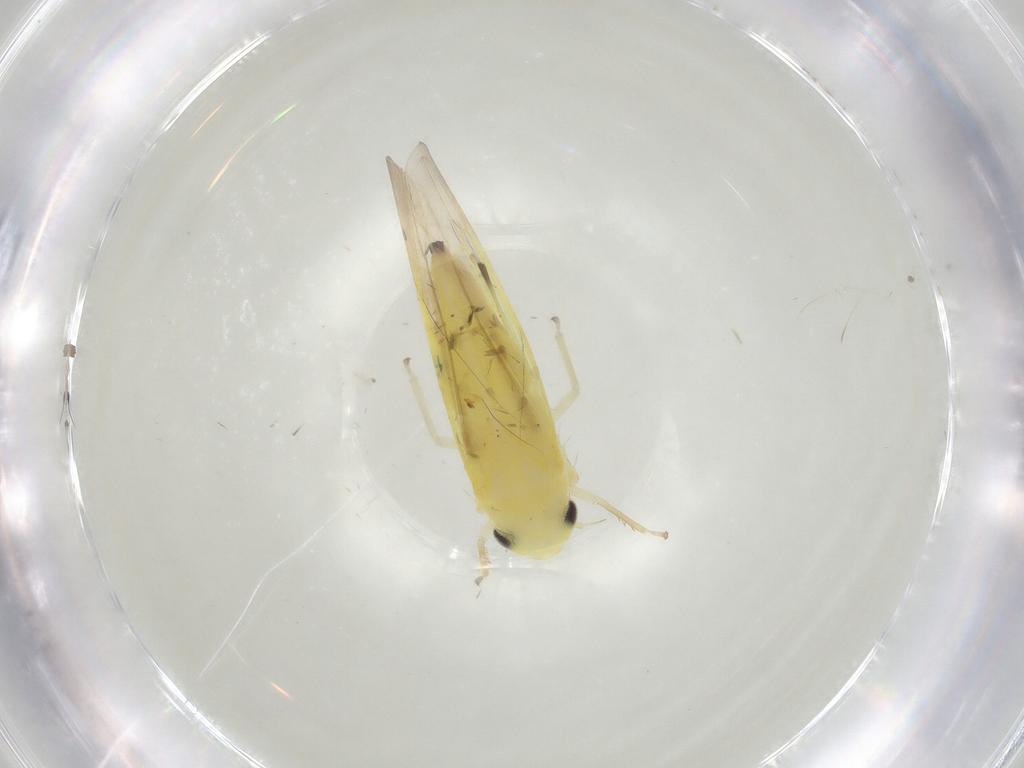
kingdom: Animalia
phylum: Arthropoda
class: Insecta
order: Hemiptera
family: Cicadellidae
